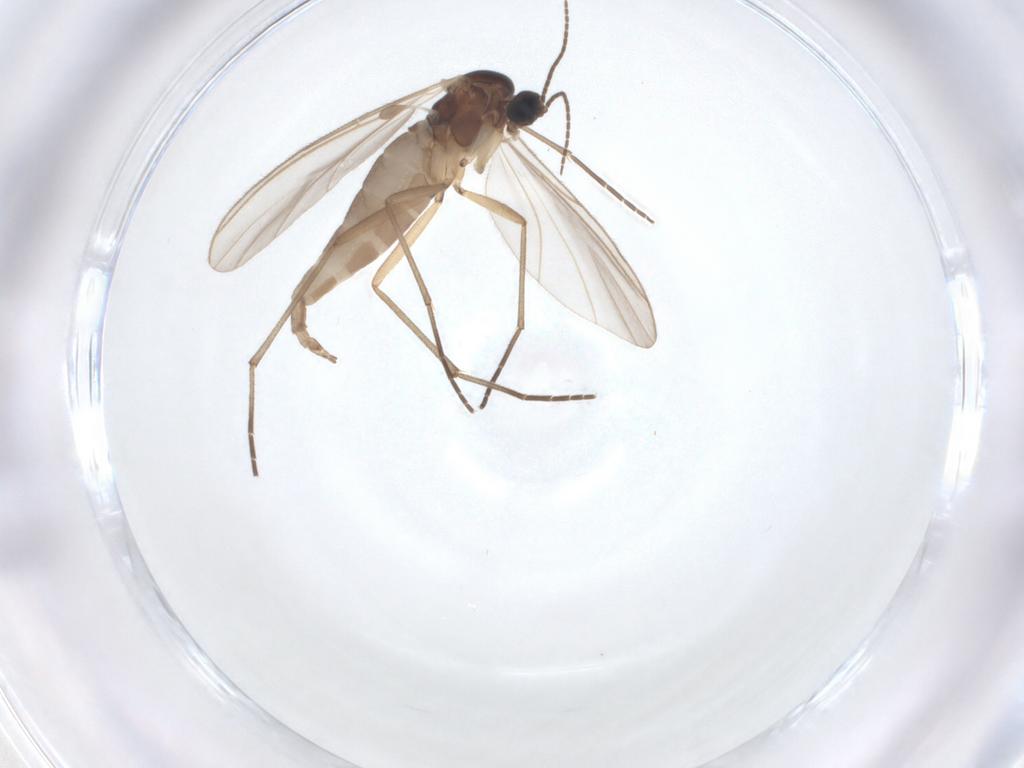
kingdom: Animalia
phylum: Arthropoda
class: Insecta
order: Diptera
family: Sciaridae
